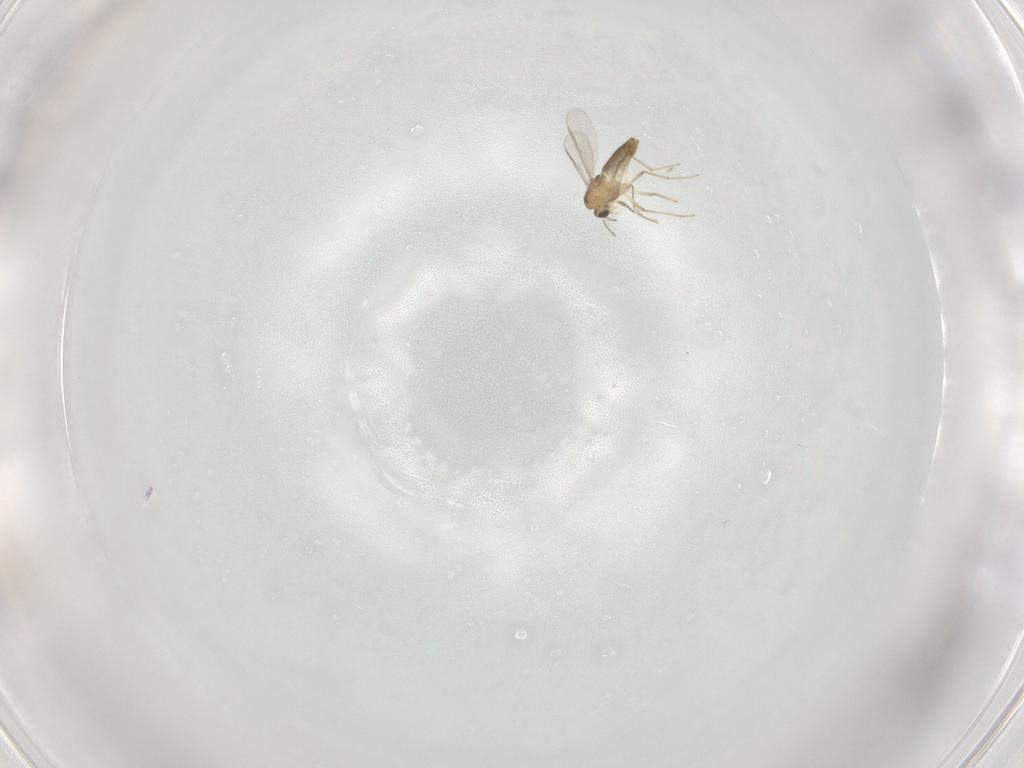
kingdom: Animalia
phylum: Arthropoda
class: Insecta
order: Diptera
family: Chironomidae
